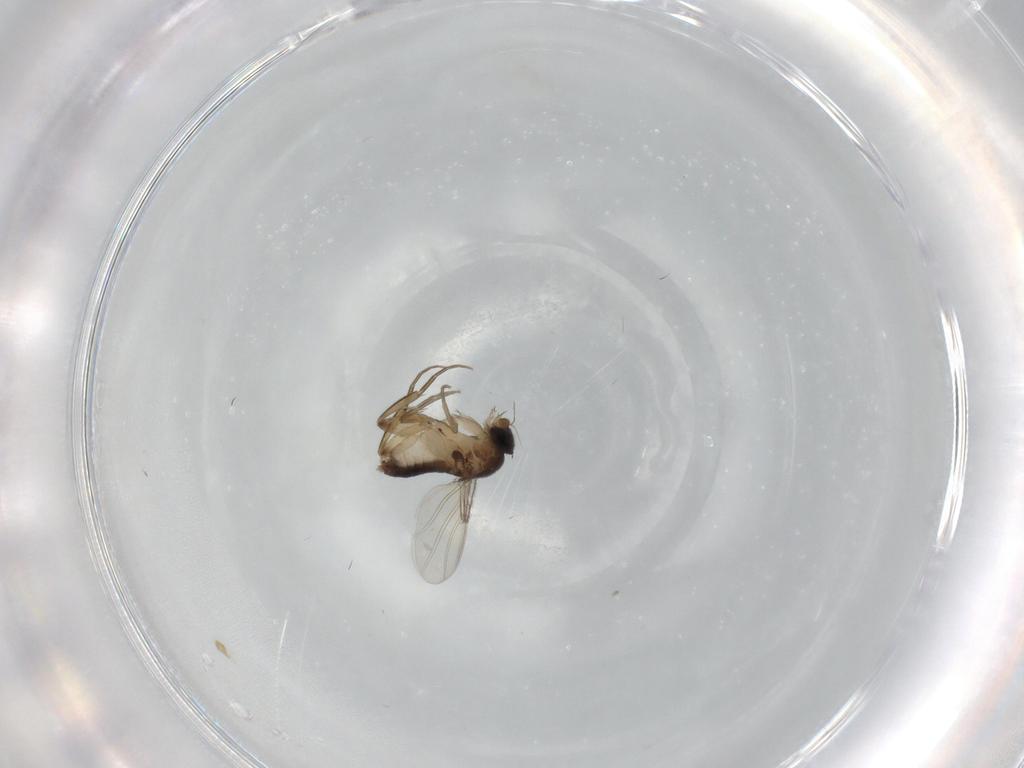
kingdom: Animalia
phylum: Arthropoda
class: Insecta
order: Diptera
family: Phoridae
